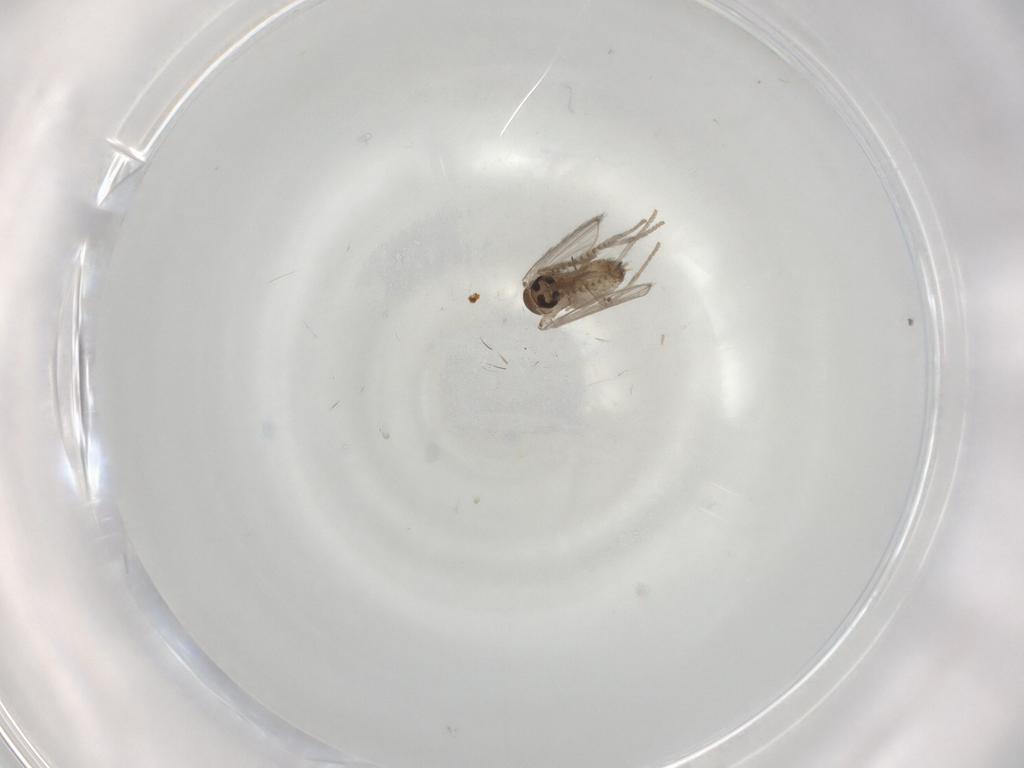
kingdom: Animalia
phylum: Arthropoda
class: Insecta
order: Diptera
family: Psychodidae
